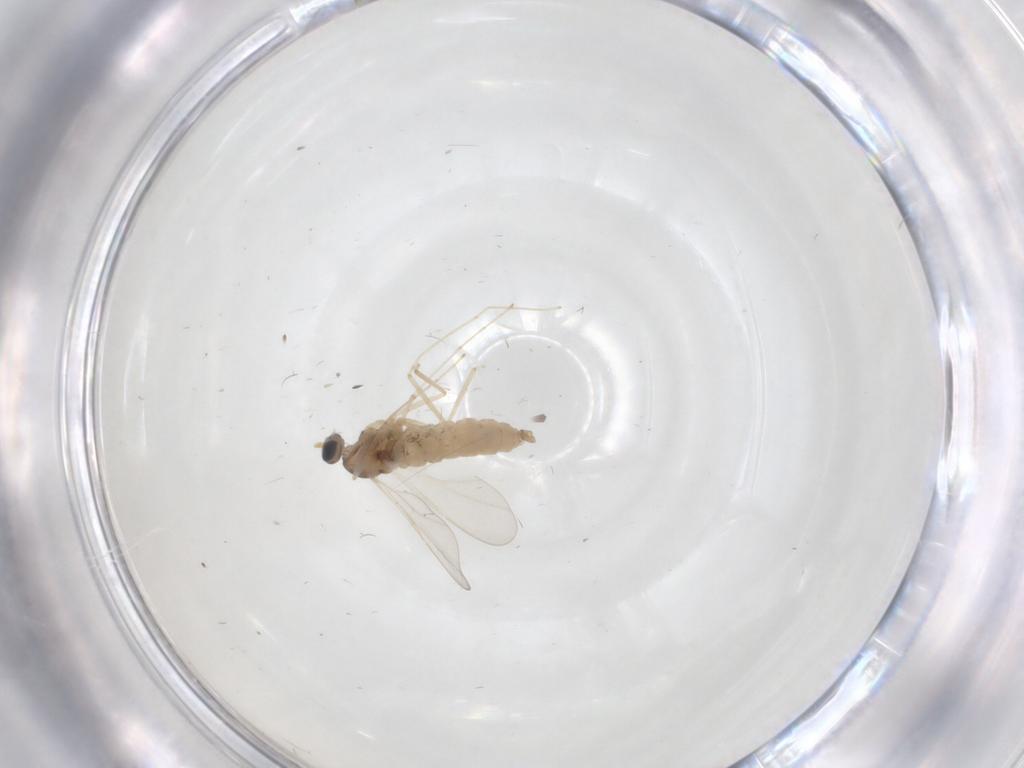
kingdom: Animalia
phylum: Arthropoda
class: Insecta
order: Diptera
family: Cecidomyiidae
